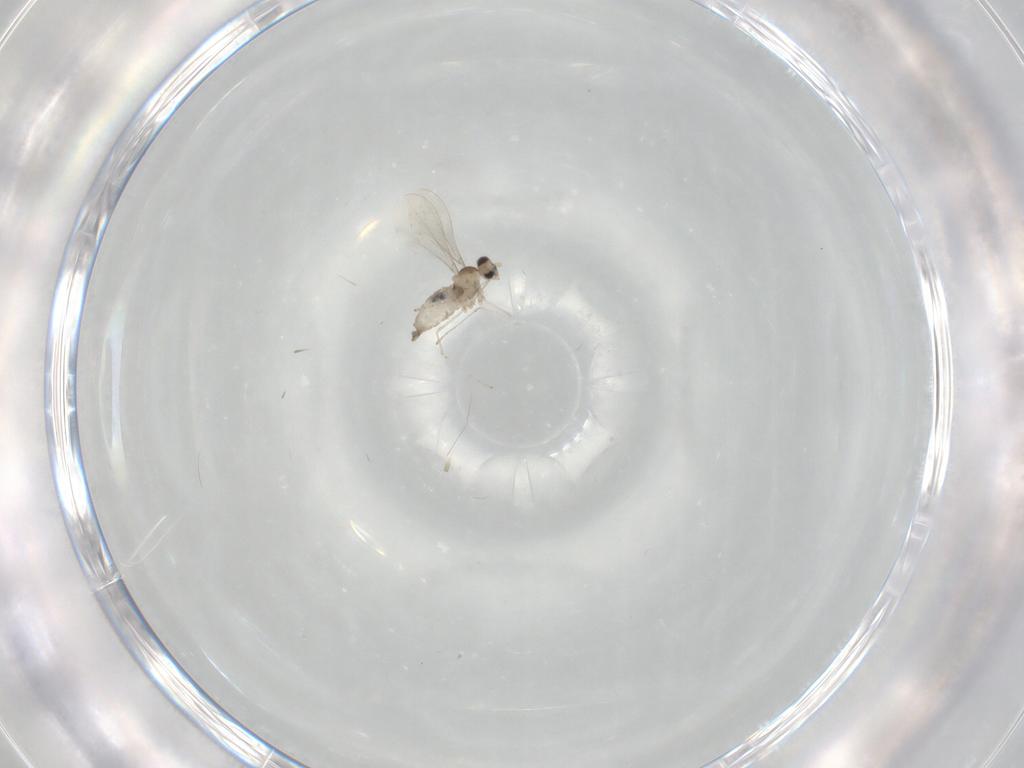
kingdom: Animalia
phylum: Arthropoda
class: Insecta
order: Diptera
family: Cecidomyiidae
